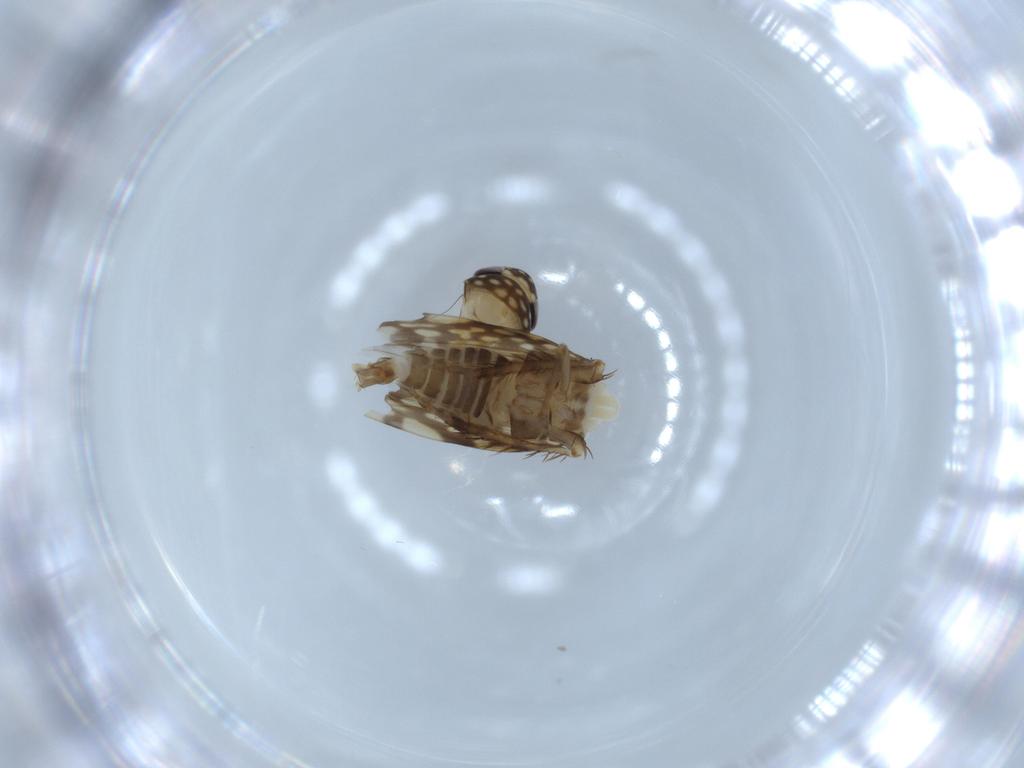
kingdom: Animalia
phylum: Arthropoda
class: Insecta
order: Hemiptera
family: Cicadellidae
